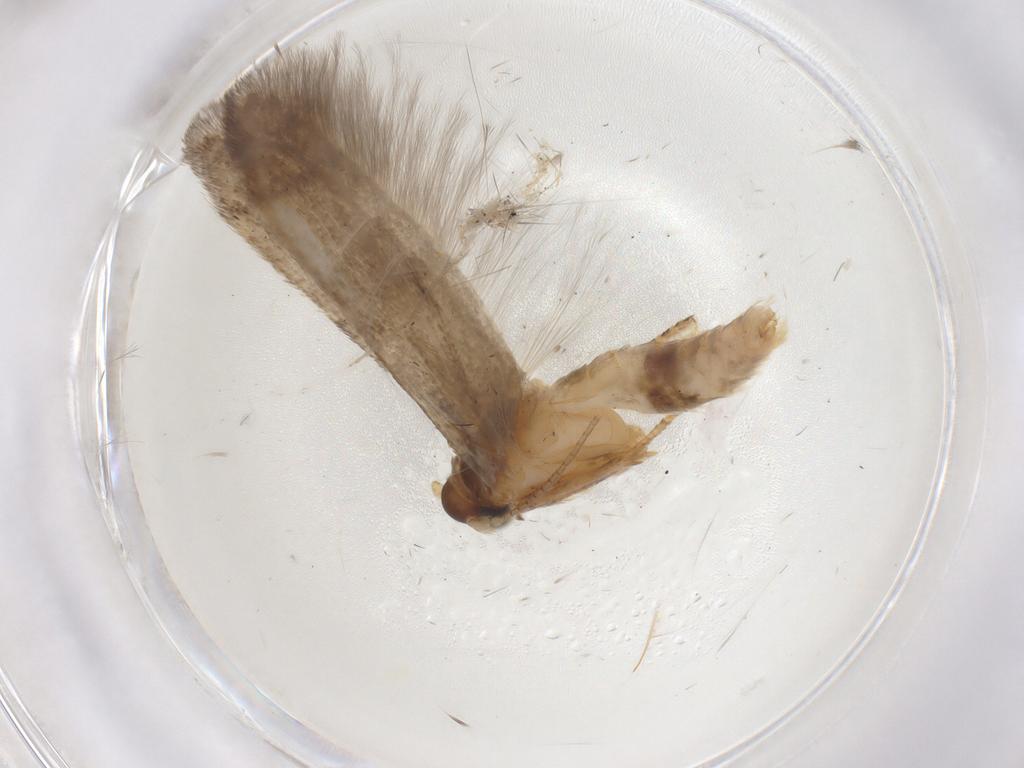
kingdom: Animalia
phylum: Arthropoda
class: Insecta
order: Lepidoptera
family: Coleophoridae
